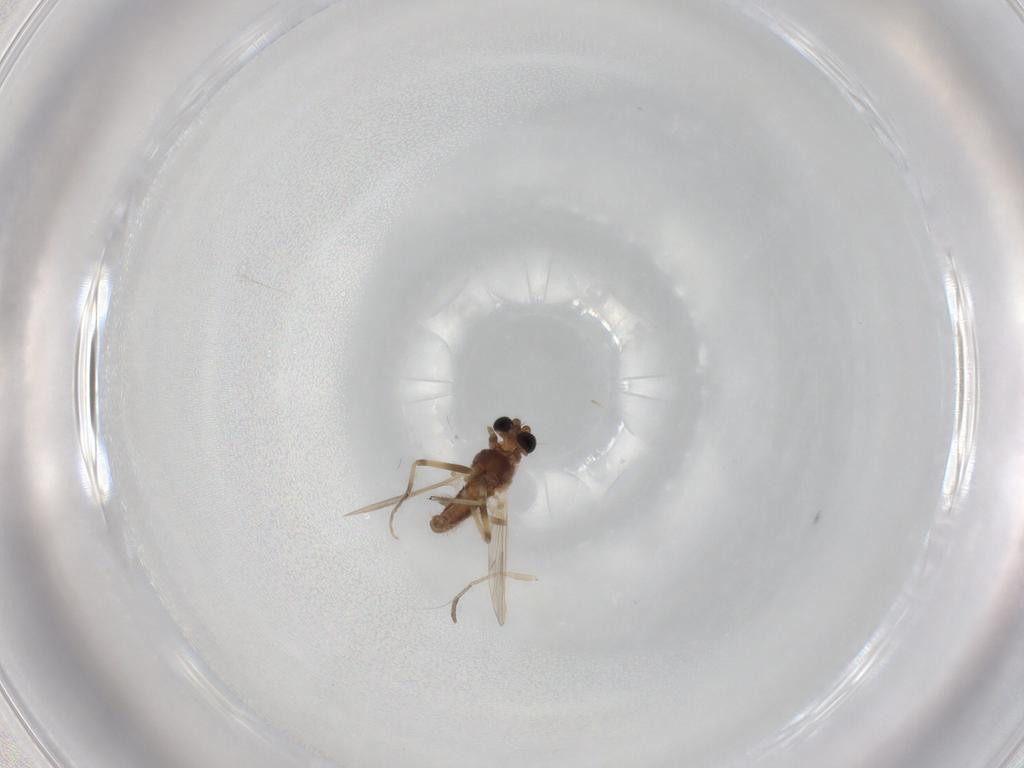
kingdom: Animalia
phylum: Arthropoda
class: Insecta
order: Diptera
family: Chironomidae
